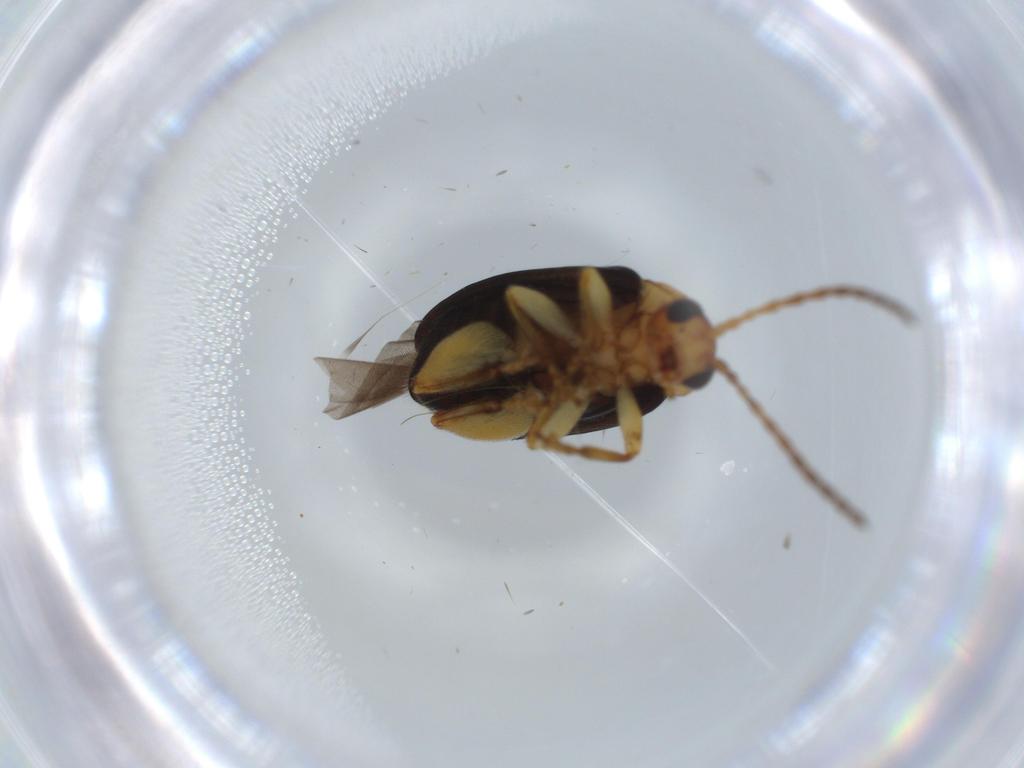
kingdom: Animalia
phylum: Arthropoda
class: Insecta
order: Coleoptera
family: Chrysomelidae
